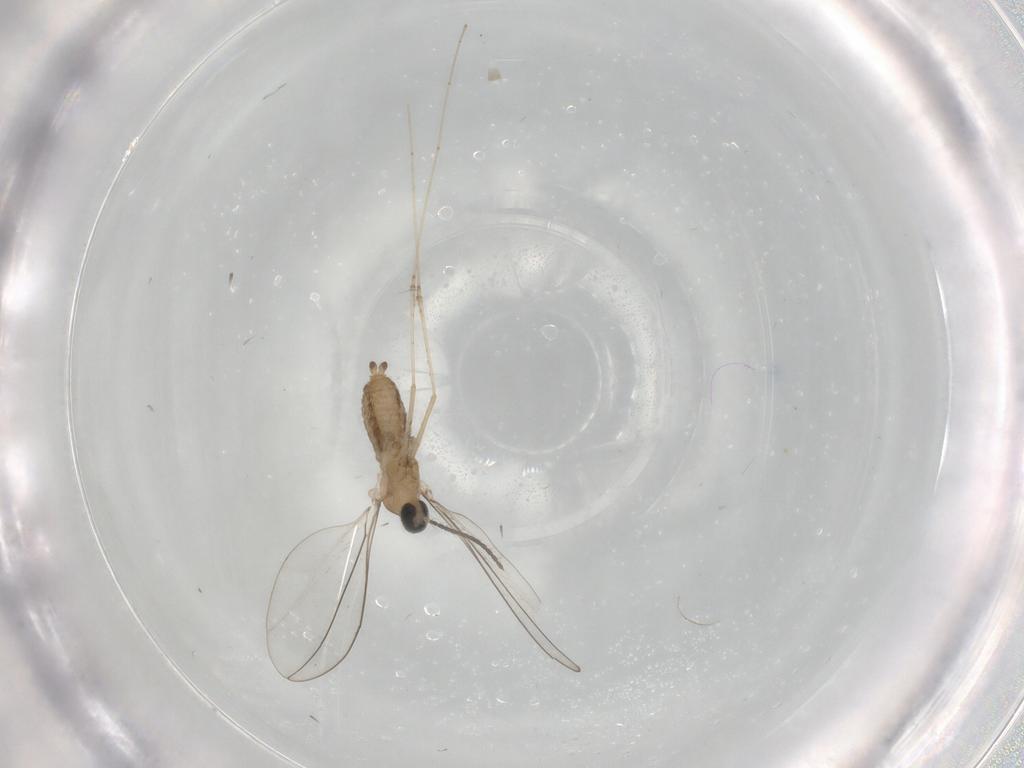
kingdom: Animalia
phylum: Arthropoda
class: Insecta
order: Diptera
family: Cecidomyiidae
